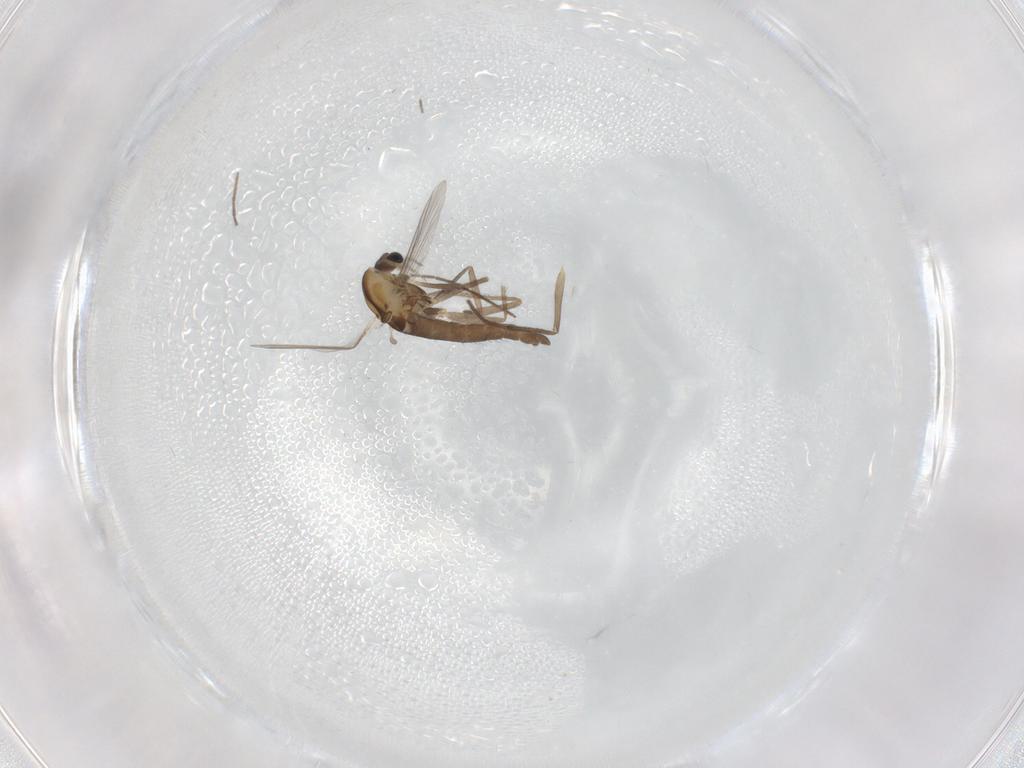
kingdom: Animalia
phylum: Arthropoda
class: Insecta
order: Diptera
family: Chironomidae
